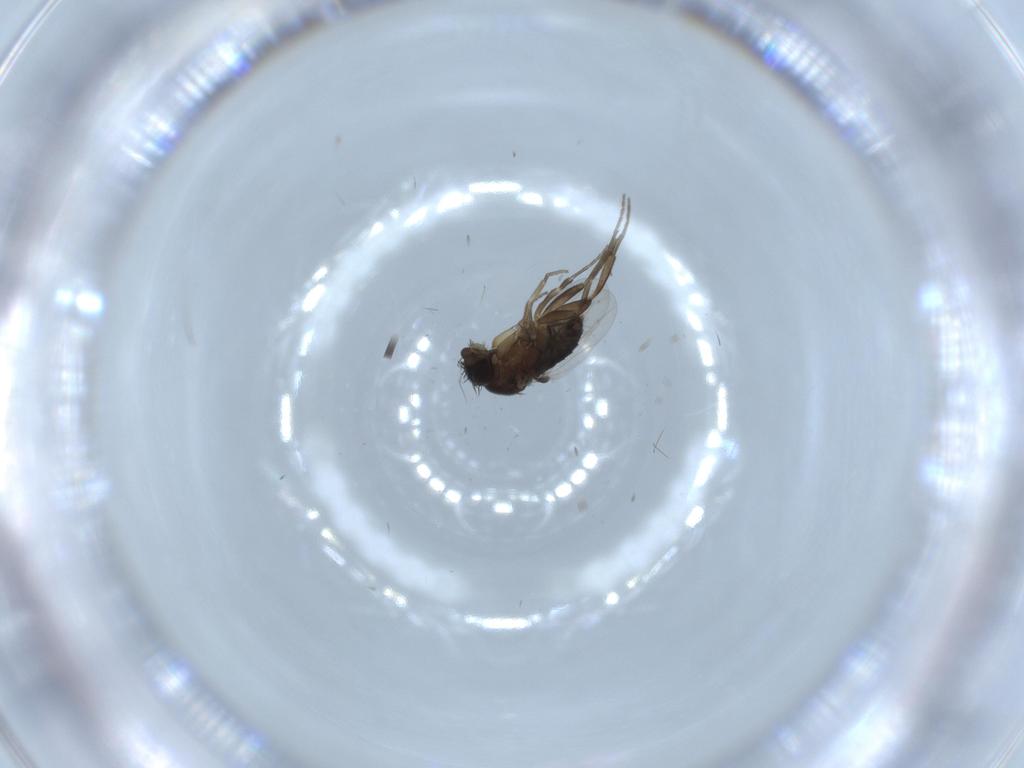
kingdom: Animalia
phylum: Arthropoda
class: Insecta
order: Diptera
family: Phoridae
